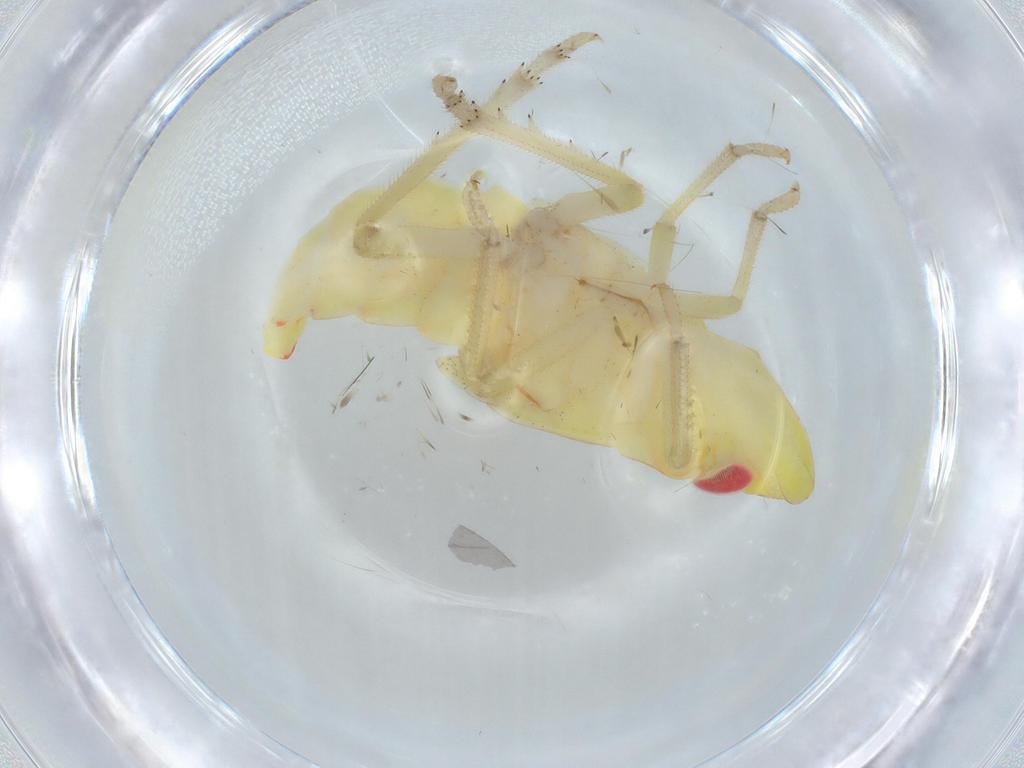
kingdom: Animalia
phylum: Arthropoda
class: Insecta
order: Hemiptera
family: Tropiduchidae
